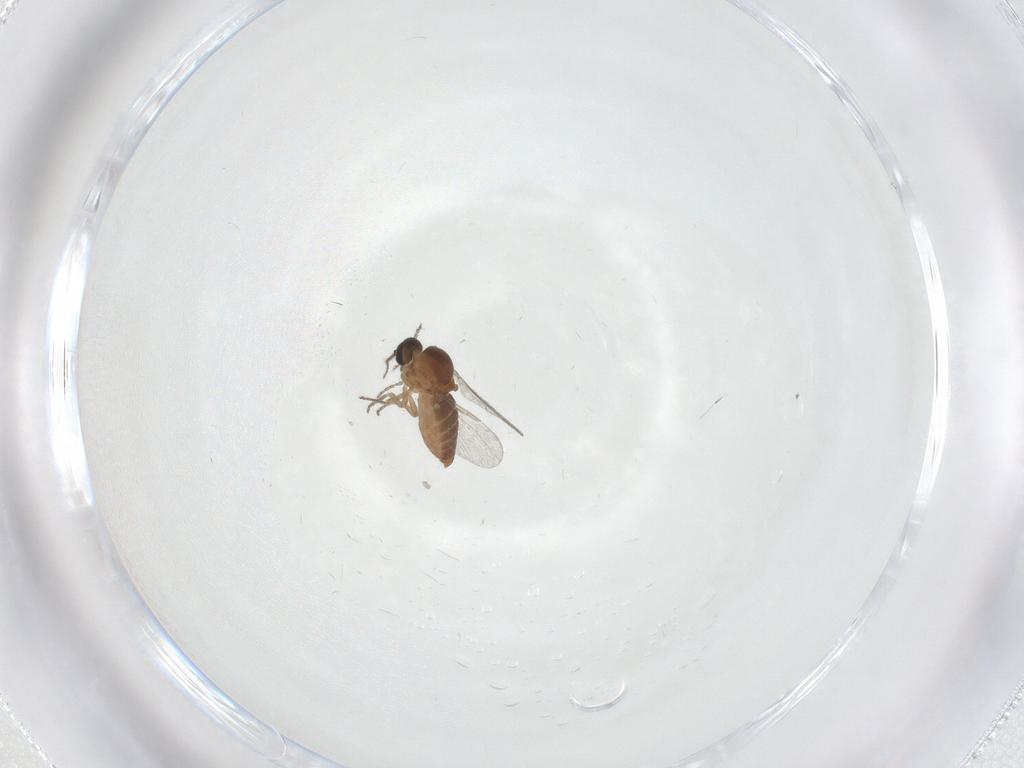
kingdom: Animalia
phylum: Arthropoda
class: Insecta
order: Diptera
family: Ceratopogonidae
